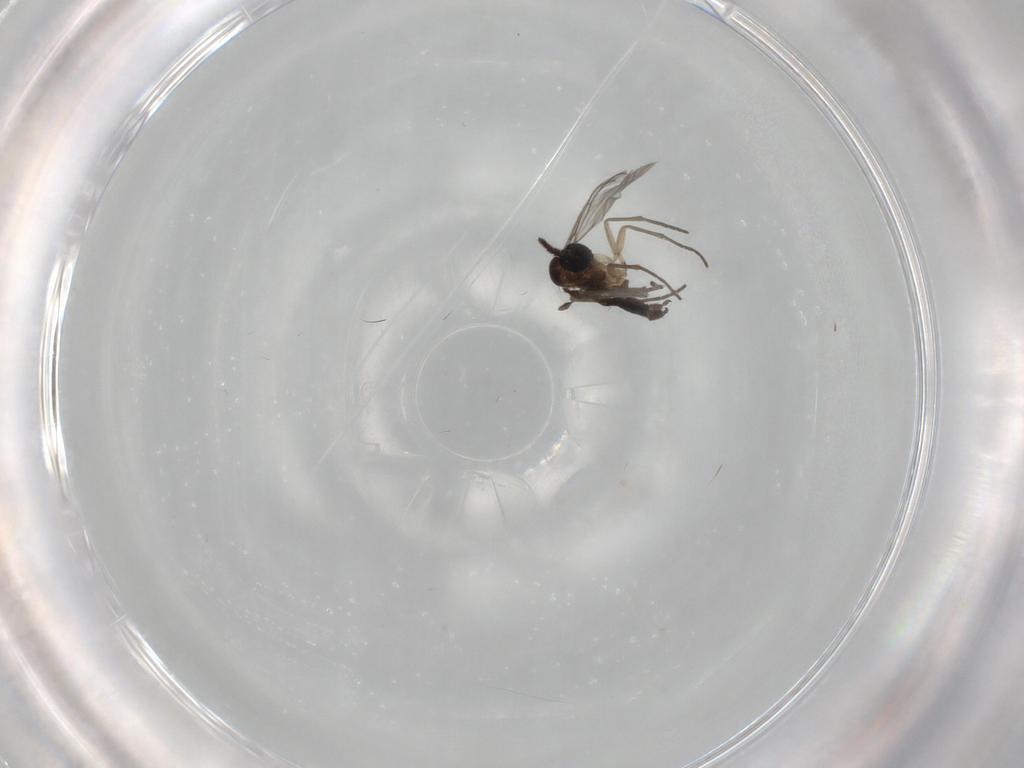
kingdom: Animalia
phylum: Arthropoda
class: Insecta
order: Diptera
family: Sciaridae
